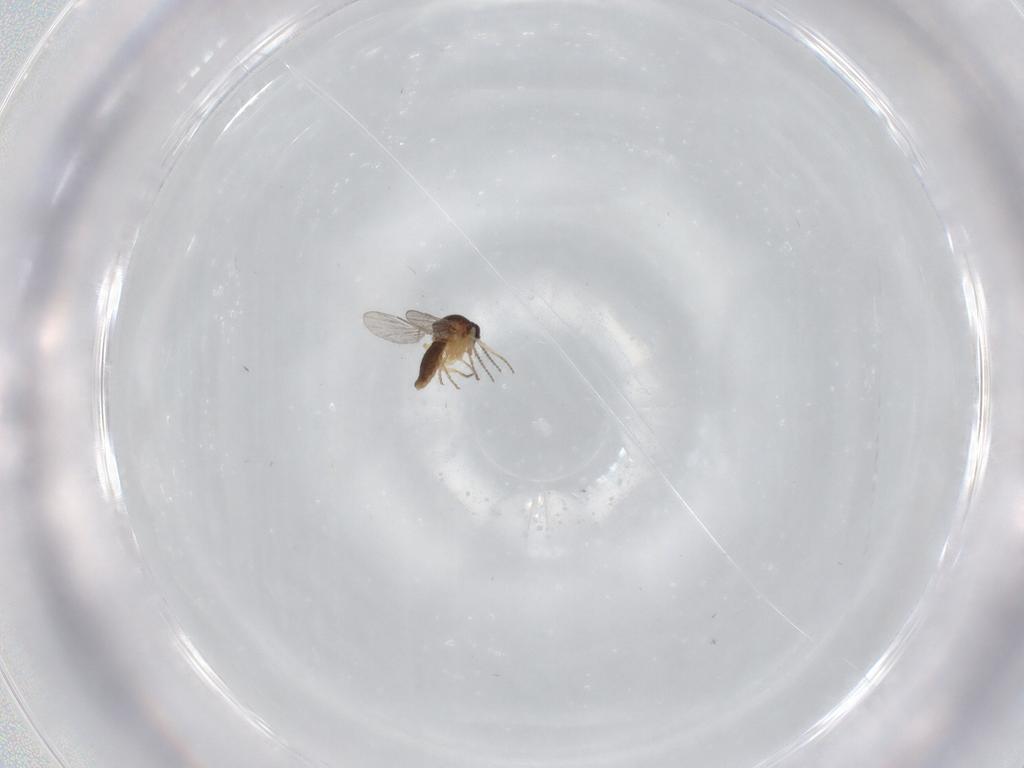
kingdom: Animalia
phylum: Arthropoda
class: Insecta
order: Diptera
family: Ceratopogonidae
